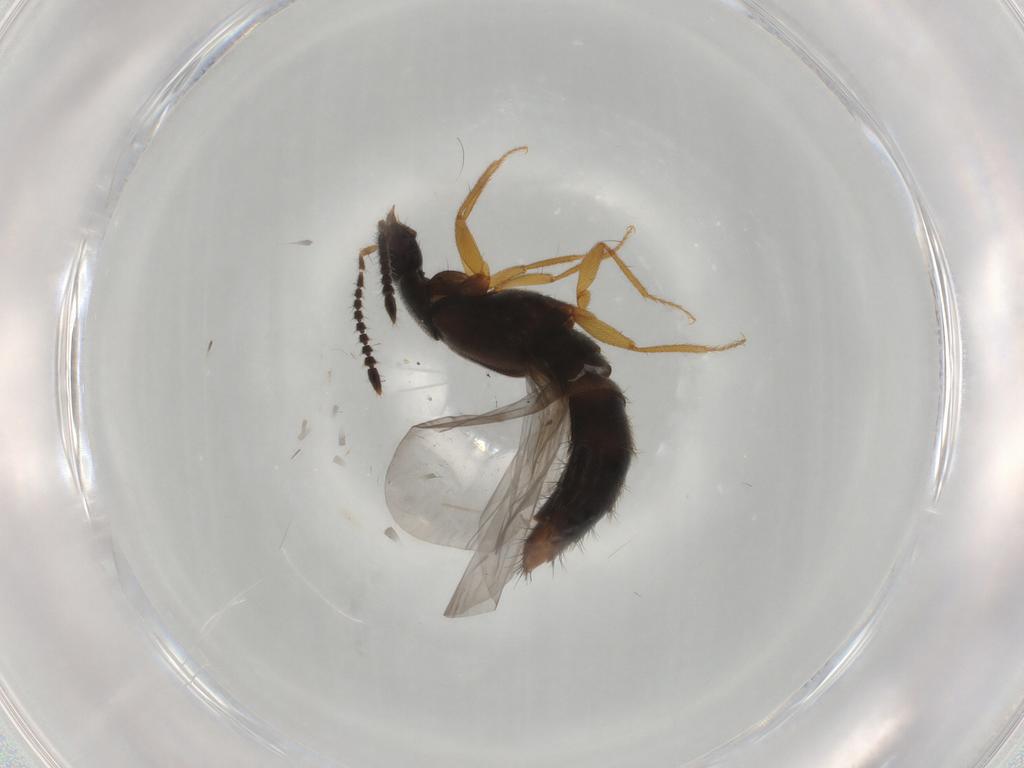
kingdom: Animalia
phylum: Arthropoda
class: Insecta
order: Coleoptera
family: Staphylinidae
